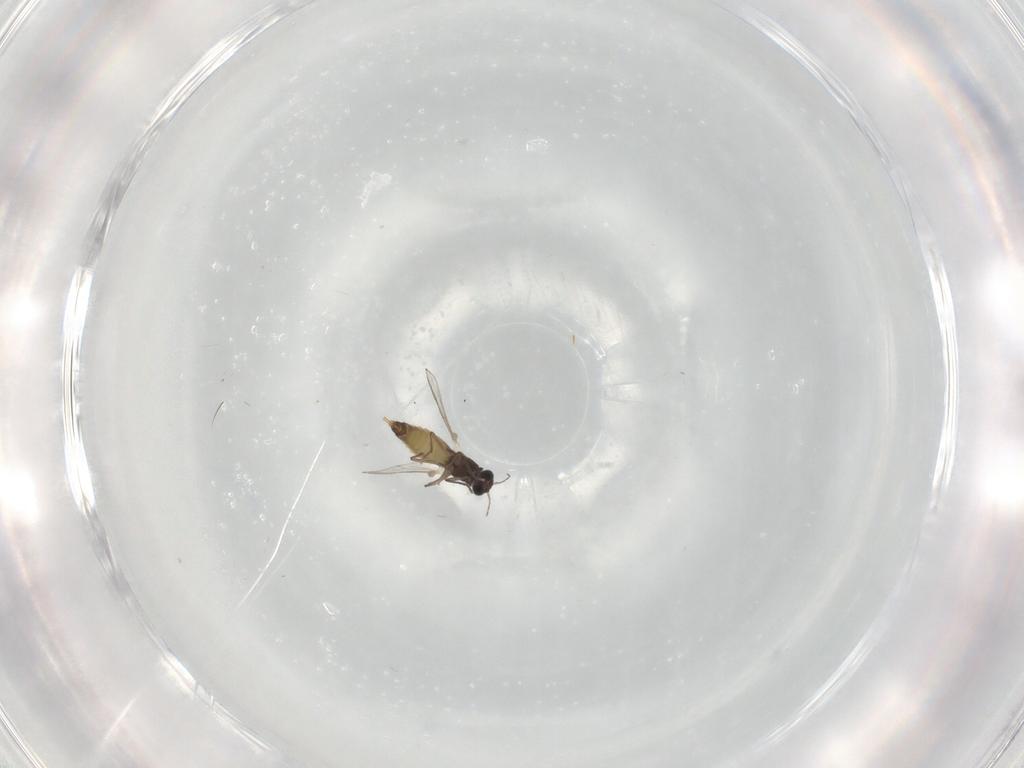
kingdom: Animalia
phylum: Arthropoda
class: Insecta
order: Diptera
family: Chironomidae
